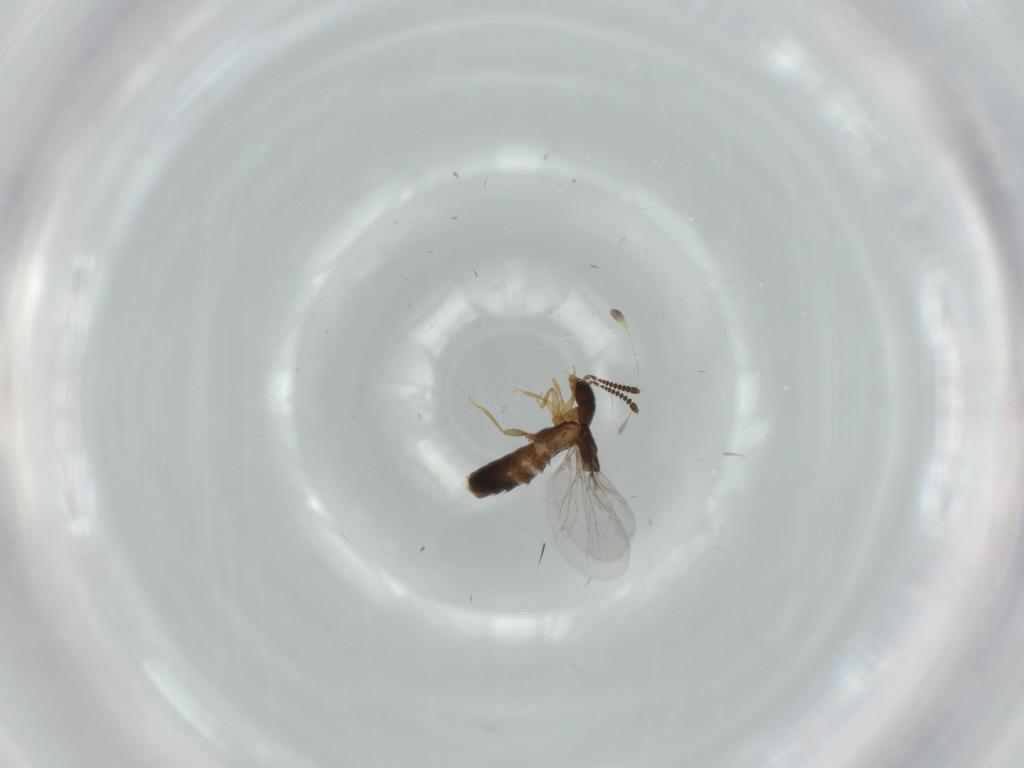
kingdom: Animalia
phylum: Arthropoda
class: Insecta
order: Coleoptera
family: Staphylinidae
